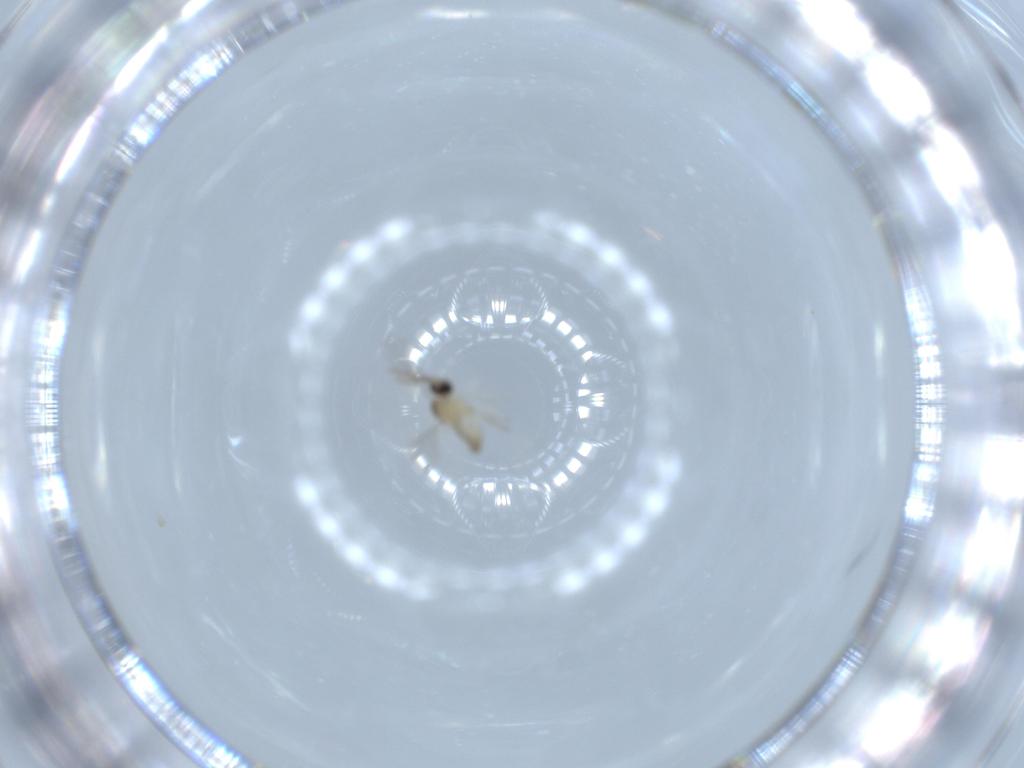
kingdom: Animalia
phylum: Arthropoda
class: Insecta
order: Diptera
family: Cecidomyiidae
